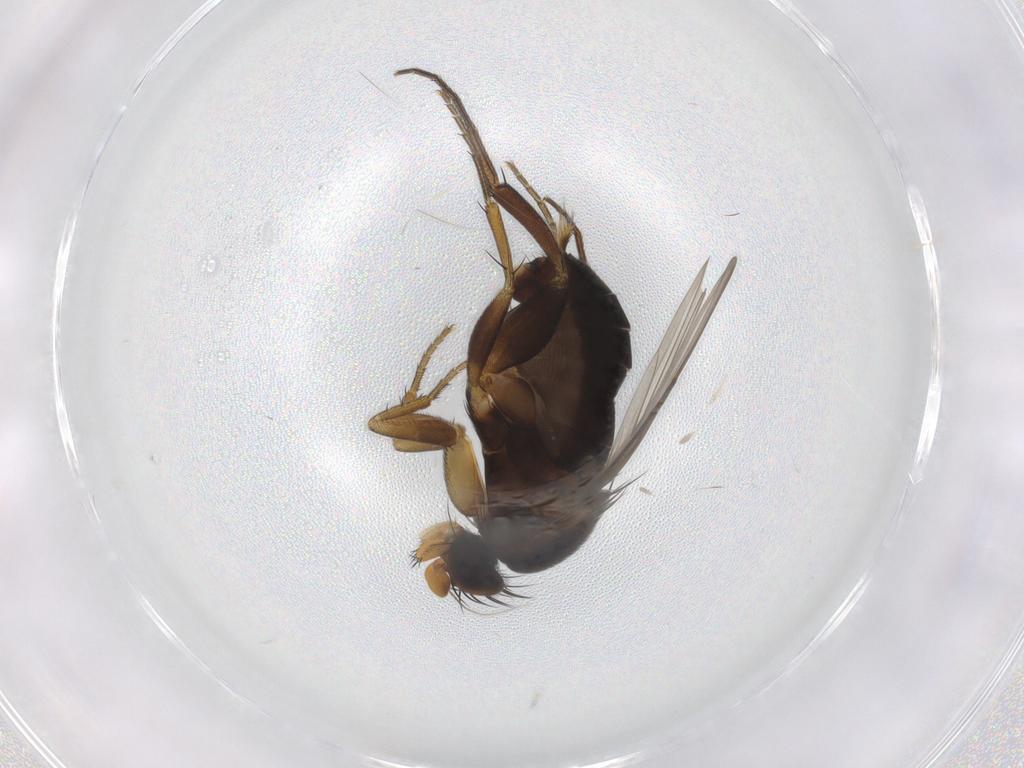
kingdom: Animalia
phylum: Arthropoda
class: Insecta
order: Diptera
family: Phoridae
